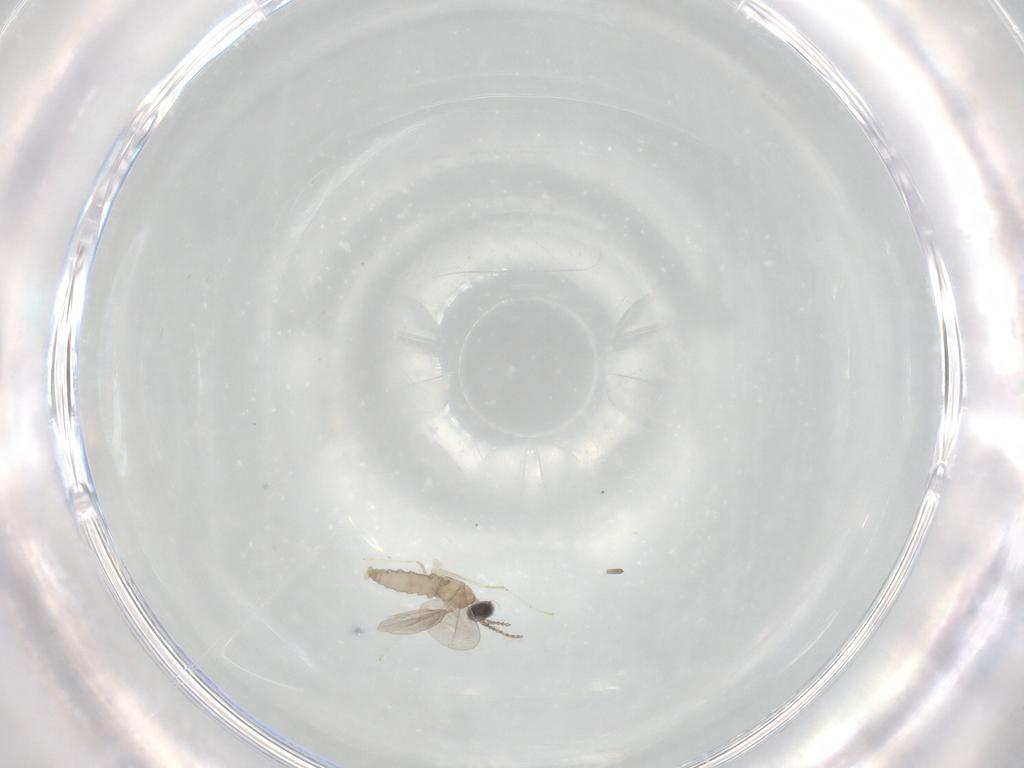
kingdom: Animalia
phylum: Arthropoda
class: Insecta
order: Diptera
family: Cecidomyiidae
